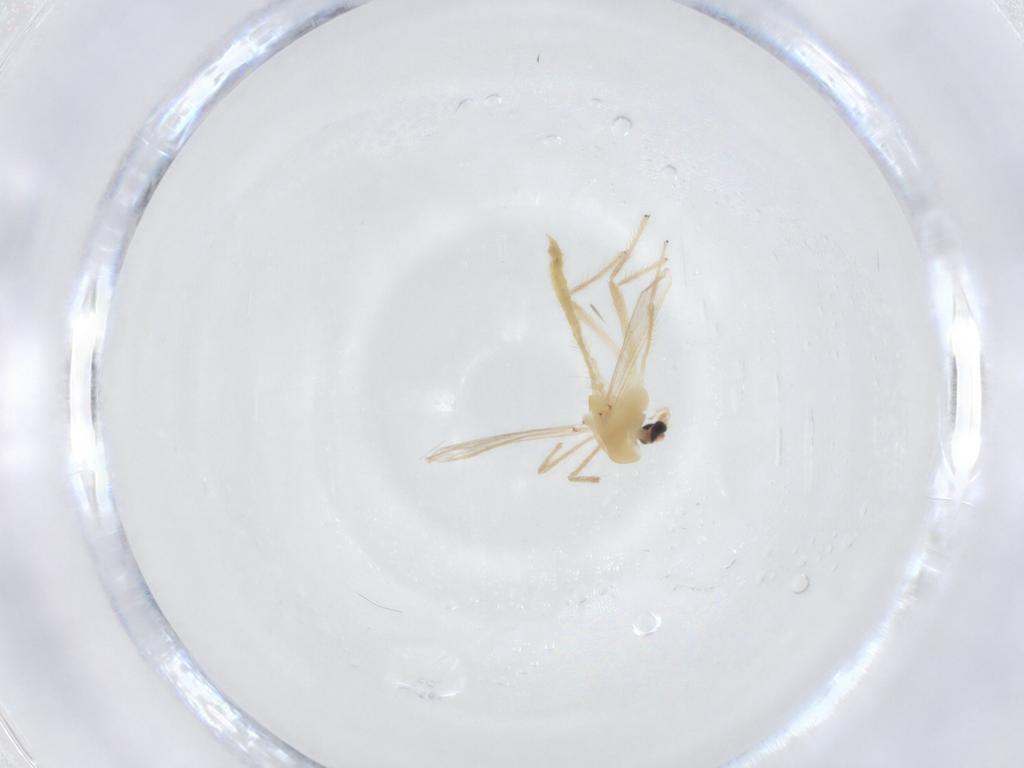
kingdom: Animalia
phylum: Arthropoda
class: Insecta
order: Diptera
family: Chironomidae
